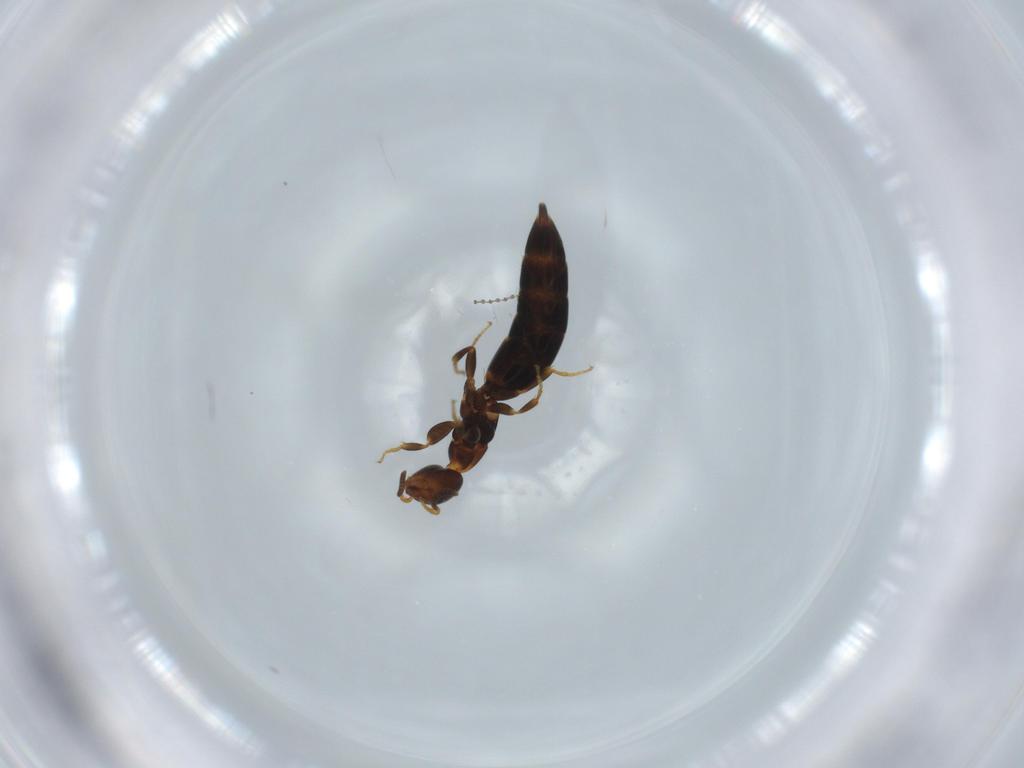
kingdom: Animalia
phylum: Arthropoda
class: Insecta
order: Hymenoptera
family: Bethylidae
